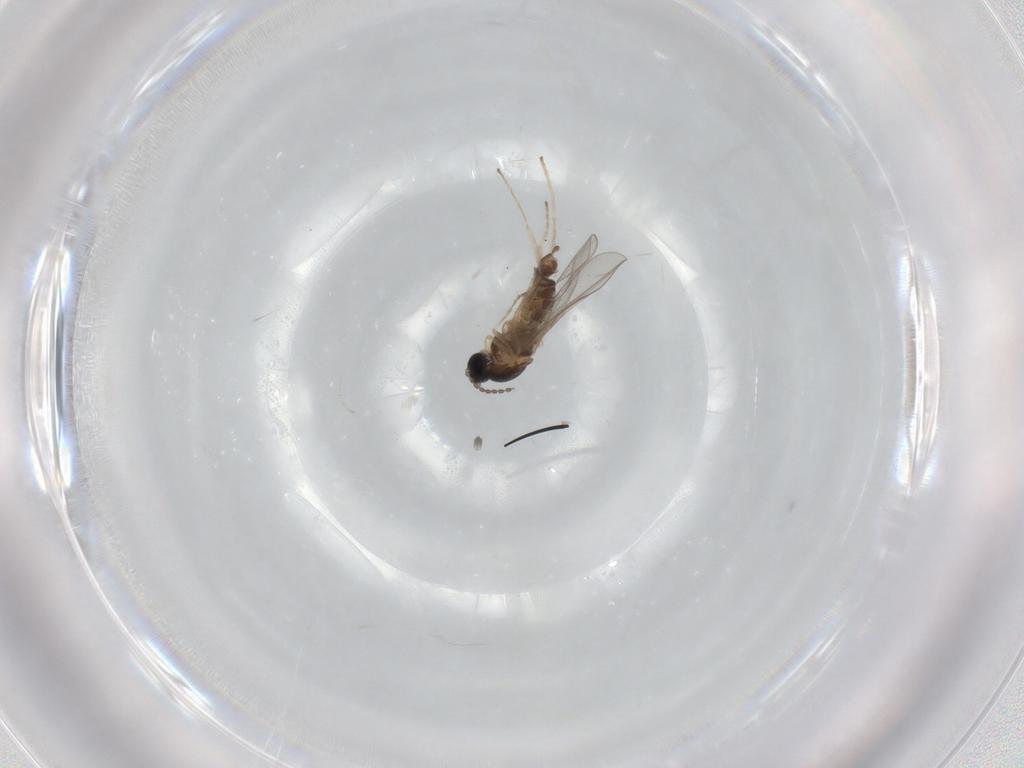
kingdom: Animalia
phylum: Arthropoda
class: Insecta
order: Diptera
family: Cecidomyiidae
